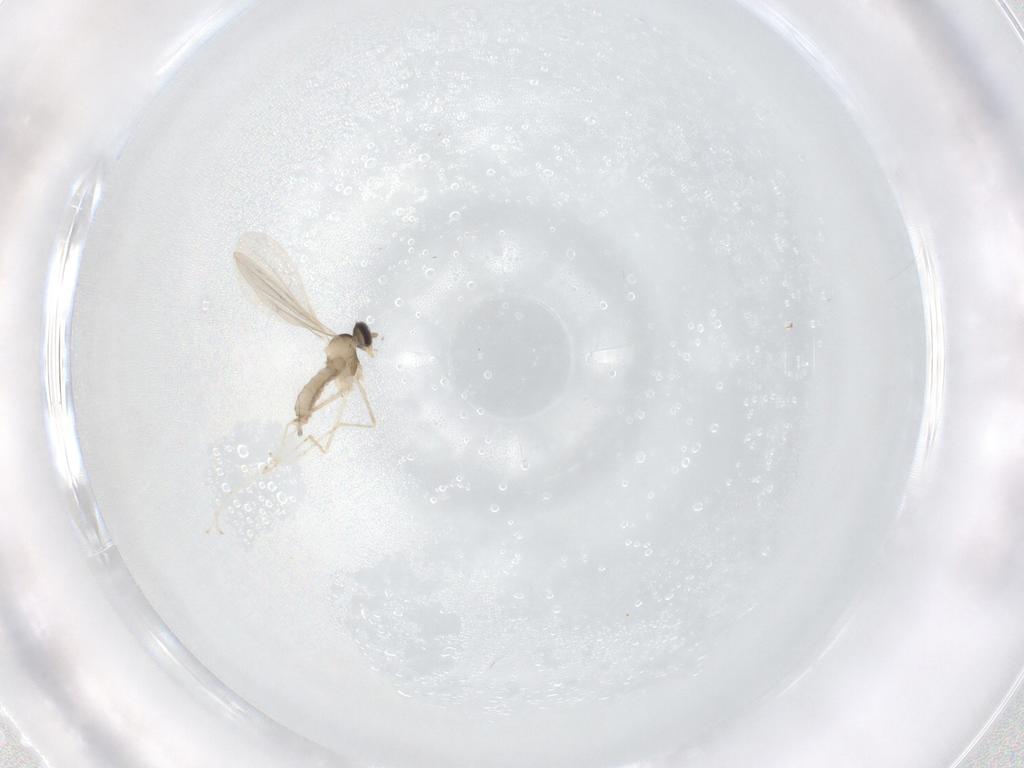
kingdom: Animalia
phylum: Arthropoda
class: Insecta
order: Diptera
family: Cecidomyiidae
